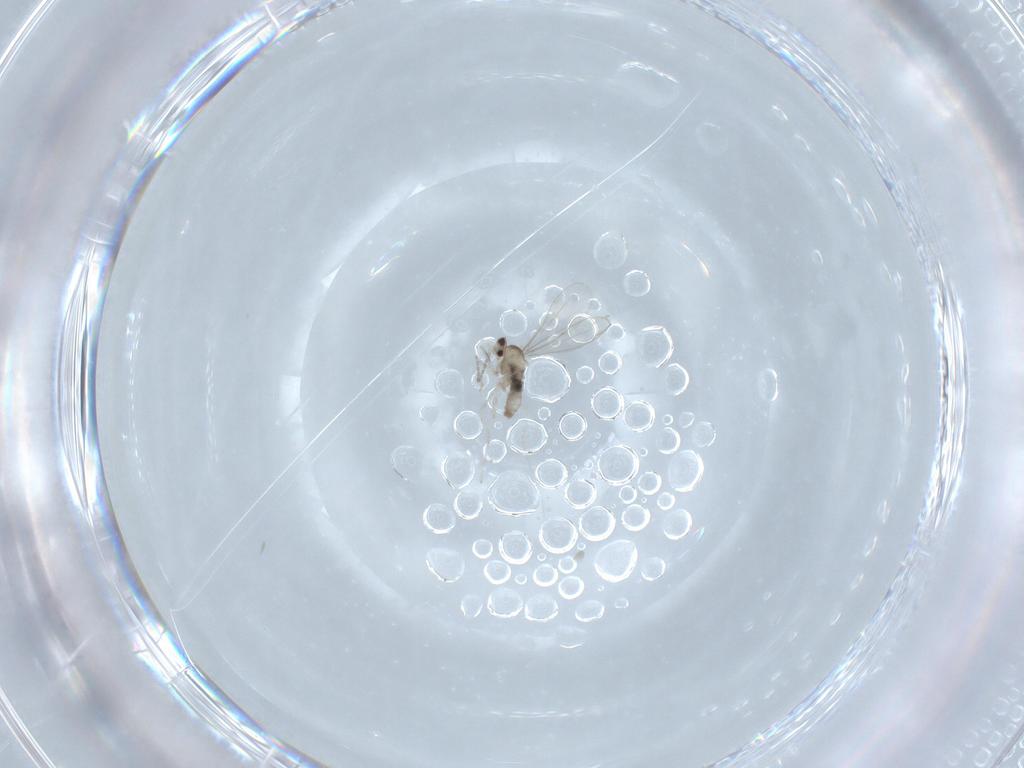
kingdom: Animalia
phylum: Arthropoda
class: Insecta
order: Diptera
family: Cecidomyiidae
